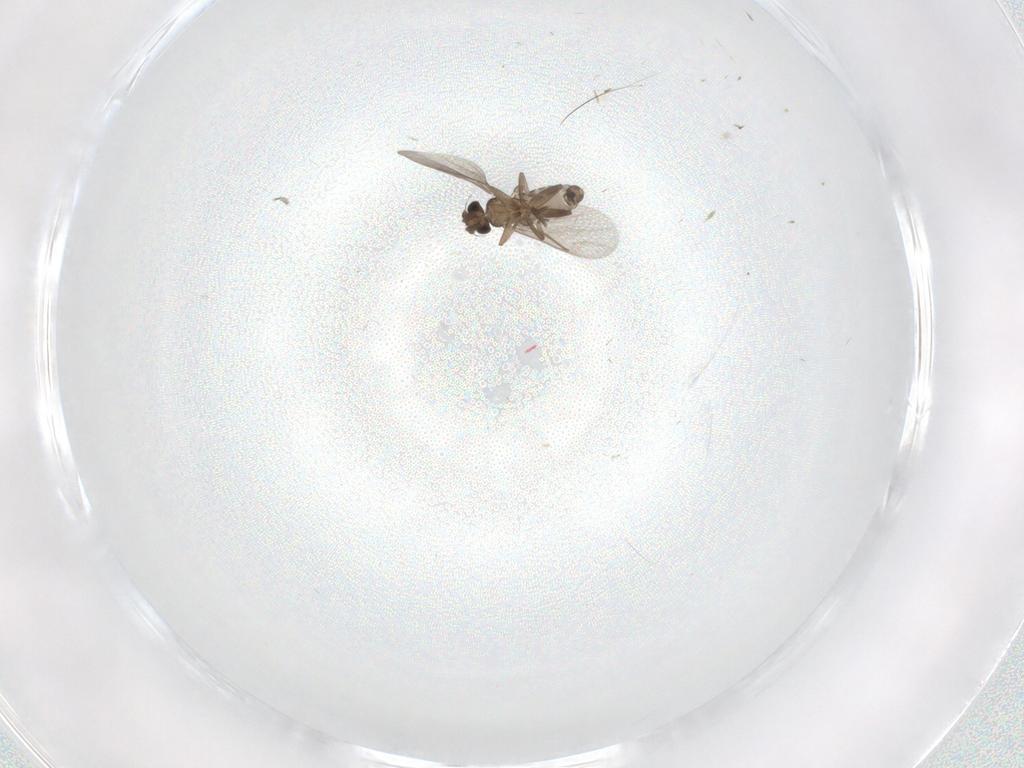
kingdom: Animalia
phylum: Arthropoda
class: Insecta
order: Diptera
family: Cecidomyiidae
